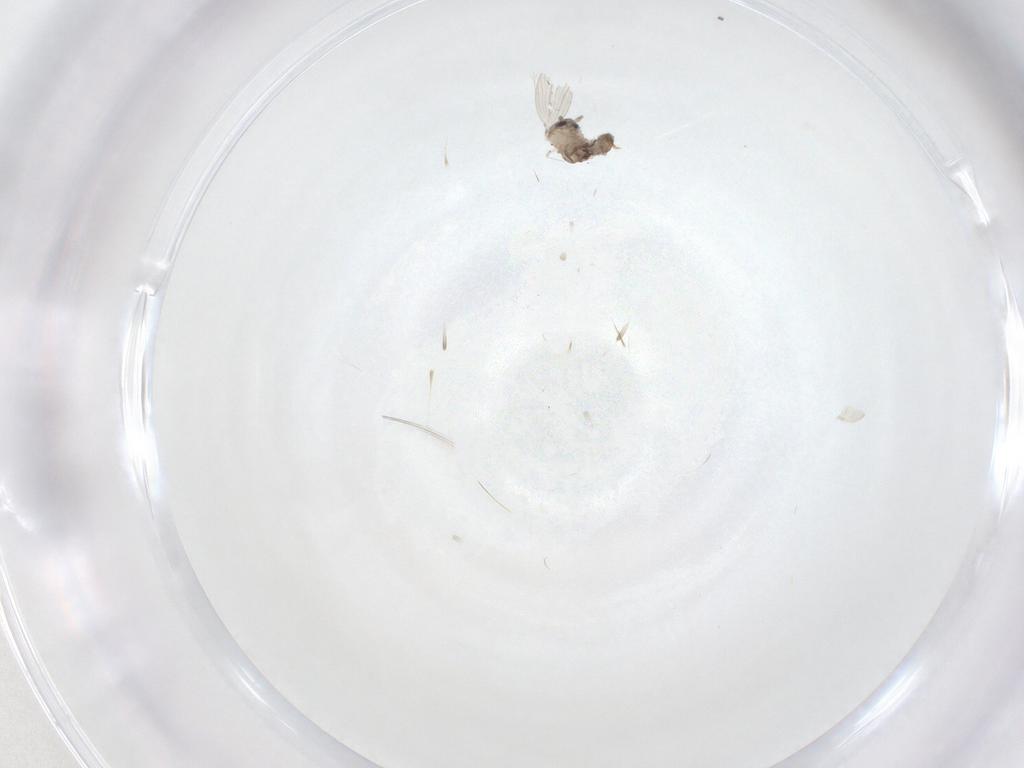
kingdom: Animalia
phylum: Arthropoda
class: Insecta
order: Diptera
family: Psychodidae
